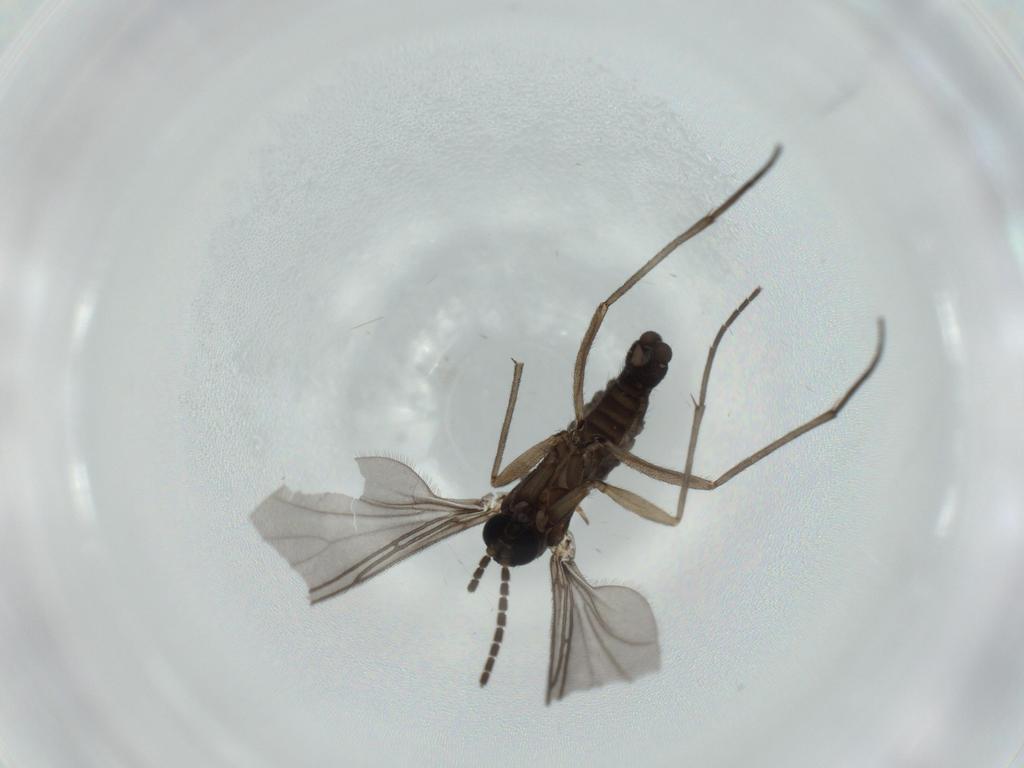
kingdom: Animalia
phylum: Arthropoda
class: Insecta
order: Diptera
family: Sciaridae
